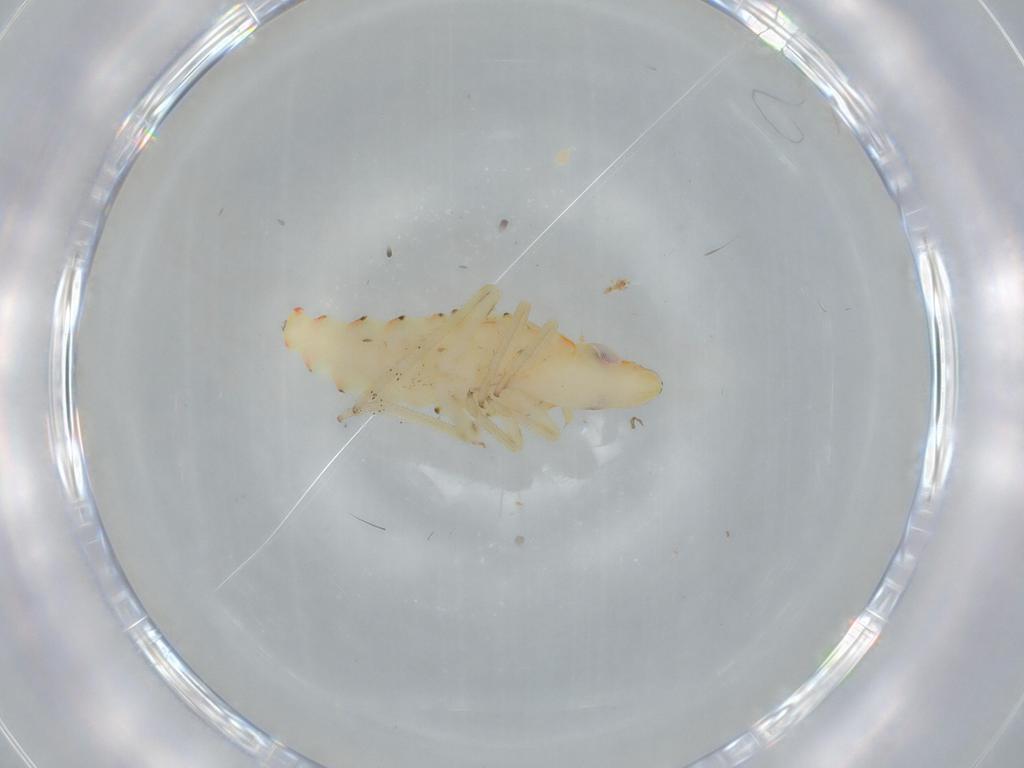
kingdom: Animalia
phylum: Arthropoda
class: Insecta
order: Hemiptera
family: Tropiduchidae
